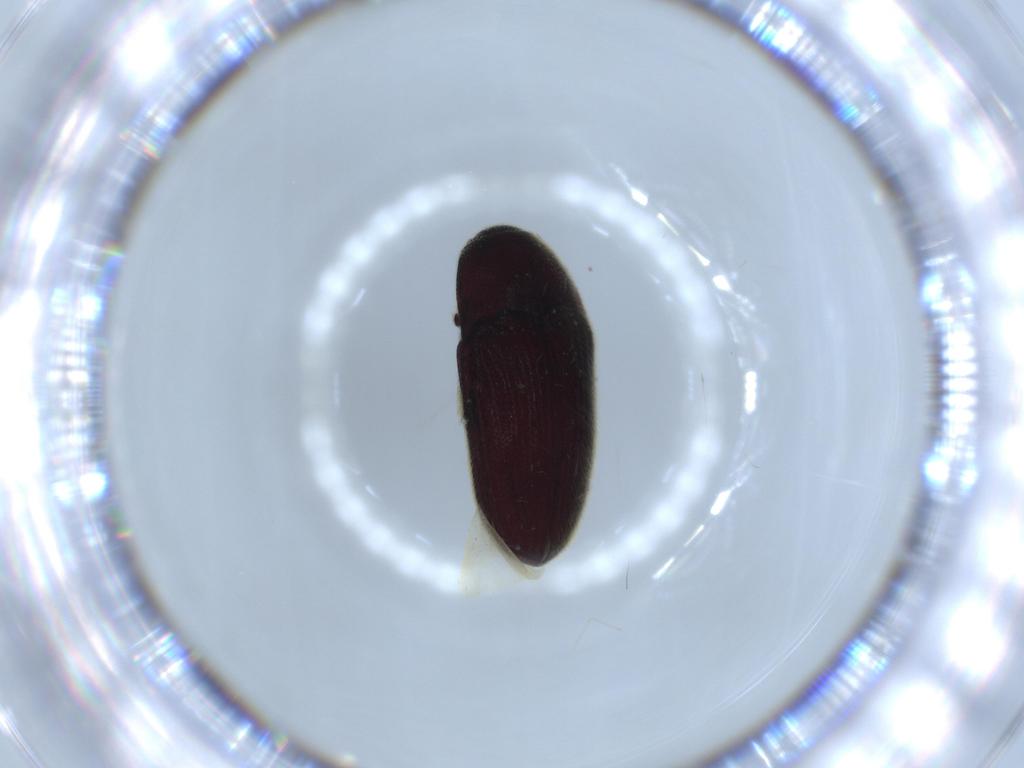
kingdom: Animalia
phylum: Arthropoda
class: Insecta
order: Coleoptera
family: Throscidae
